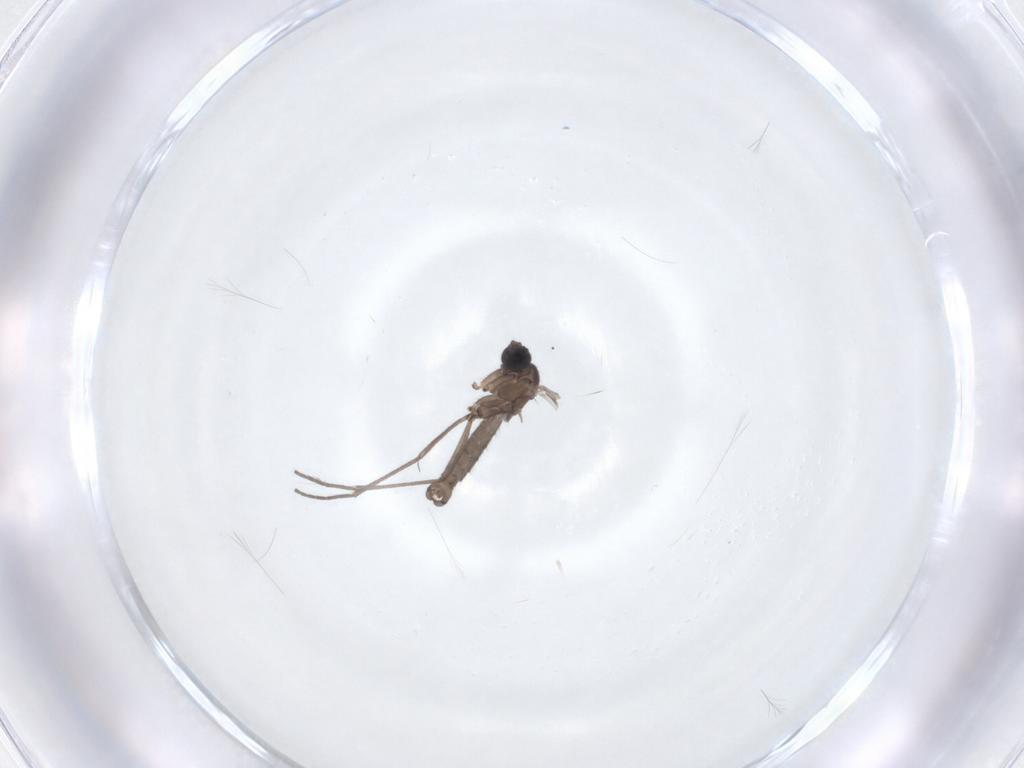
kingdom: Animalia
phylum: Arthropoda
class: Insecta
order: Diptera
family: Sciaridae
